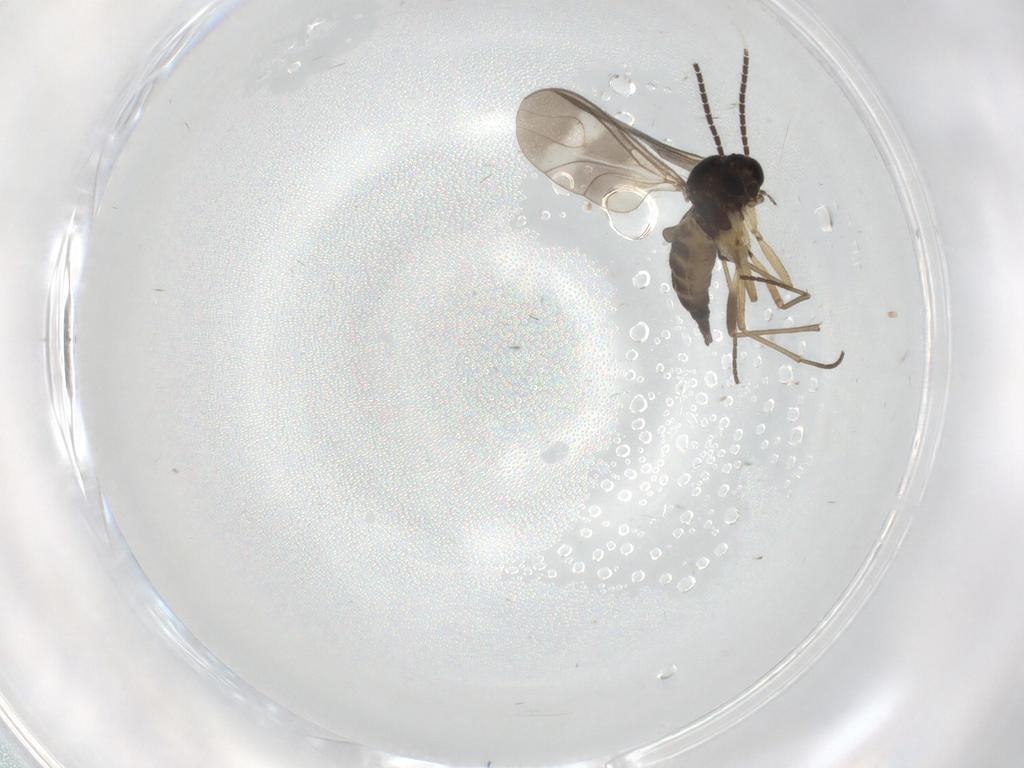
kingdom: Animalia
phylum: Arthropoda
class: Insecta
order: Diptera
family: Sciaridae
